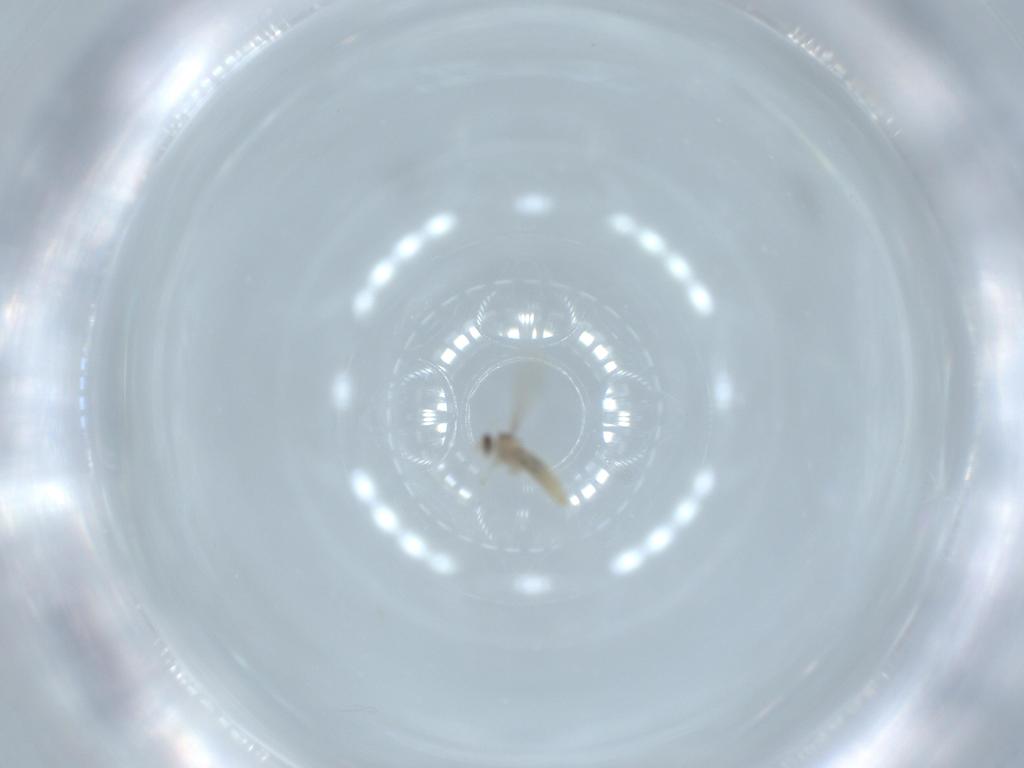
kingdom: Animalia
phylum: Arthropoda
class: Insecta
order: Diptera
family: Cecidomyiidae
